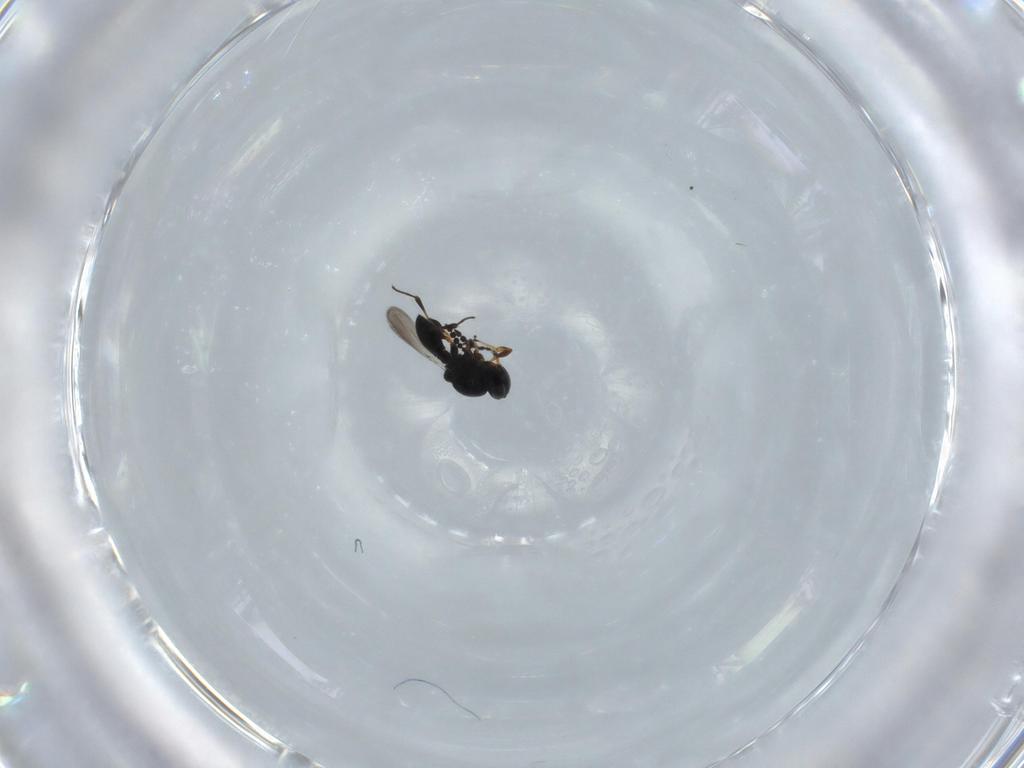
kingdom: Animalia
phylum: Arthropoda
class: Insecta
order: Hymenoptera
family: Platygastridae
